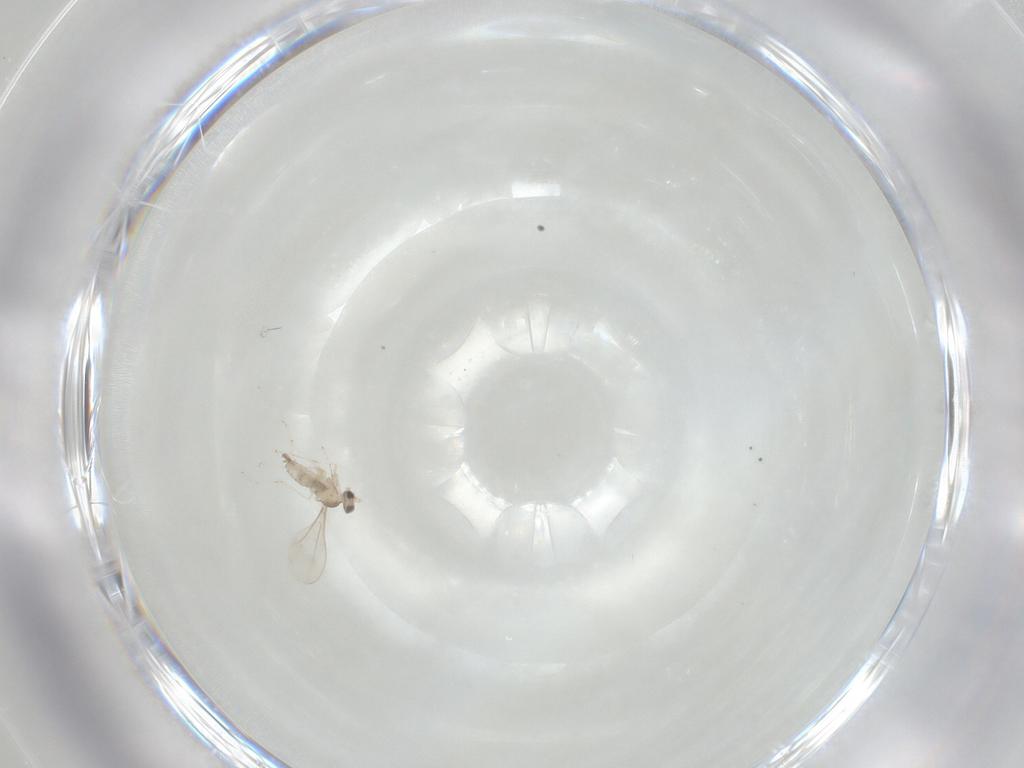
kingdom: Animalia
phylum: Arthropoda
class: Insecta
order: Diptera
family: Cecidomyiidae
